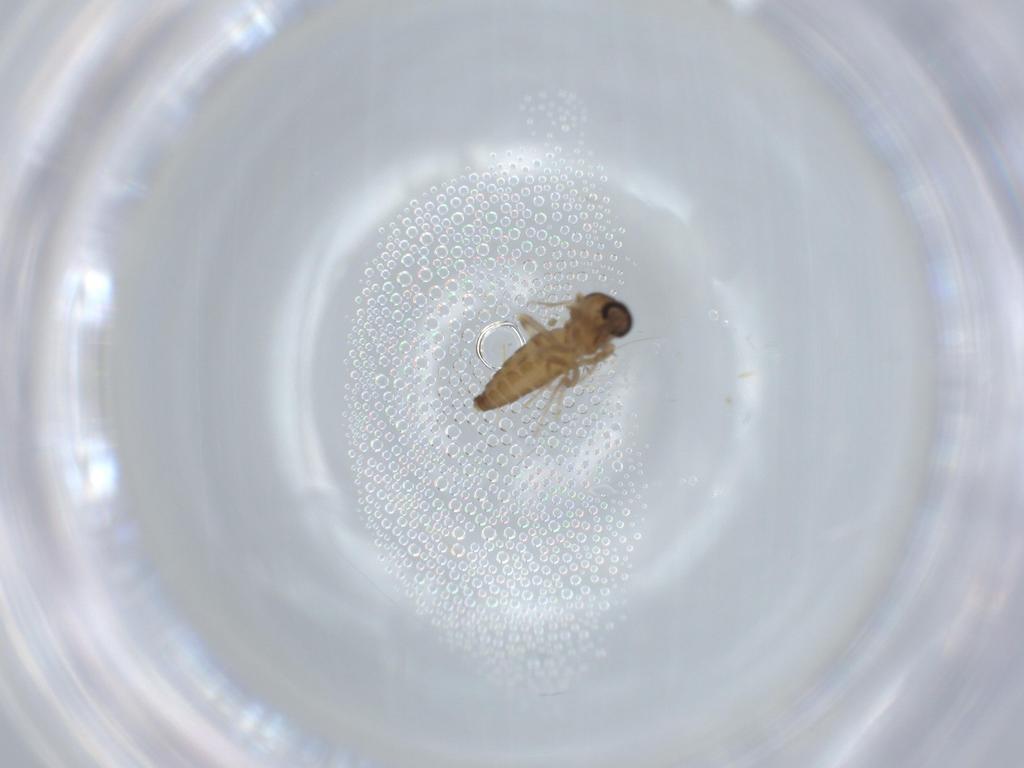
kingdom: Animalia
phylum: Arthropoda
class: Insecta
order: Diptera
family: Ceratopogonidae
